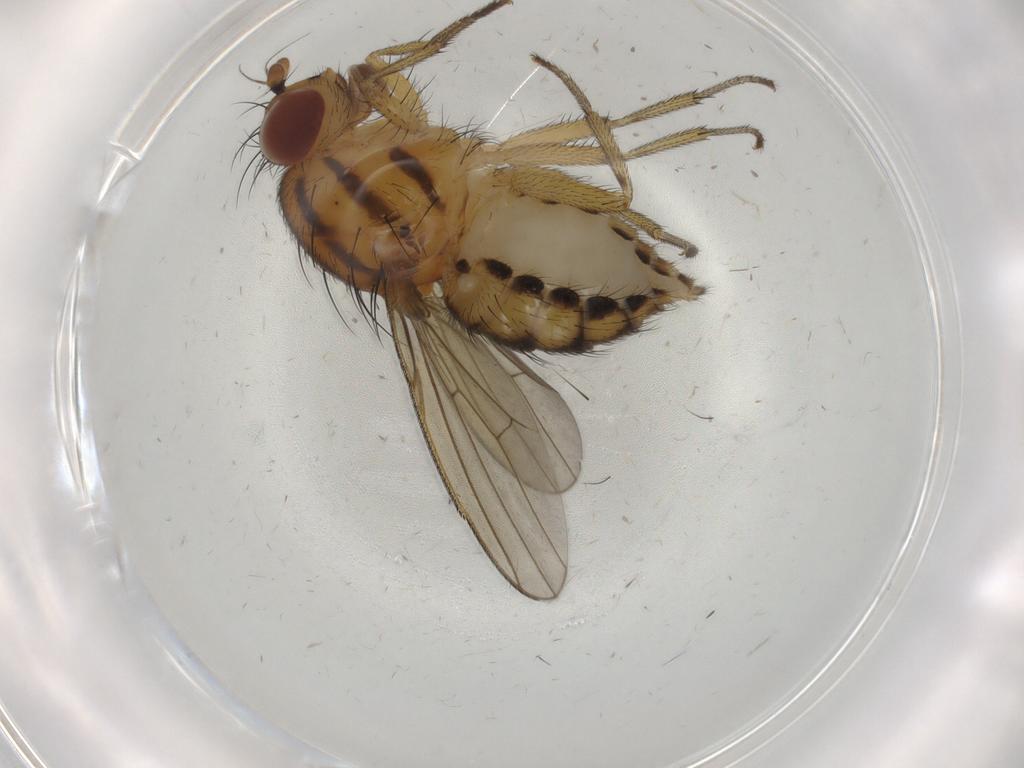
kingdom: Animalia
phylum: Arthropoda
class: Insecta
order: Diptera
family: Psychodidae
